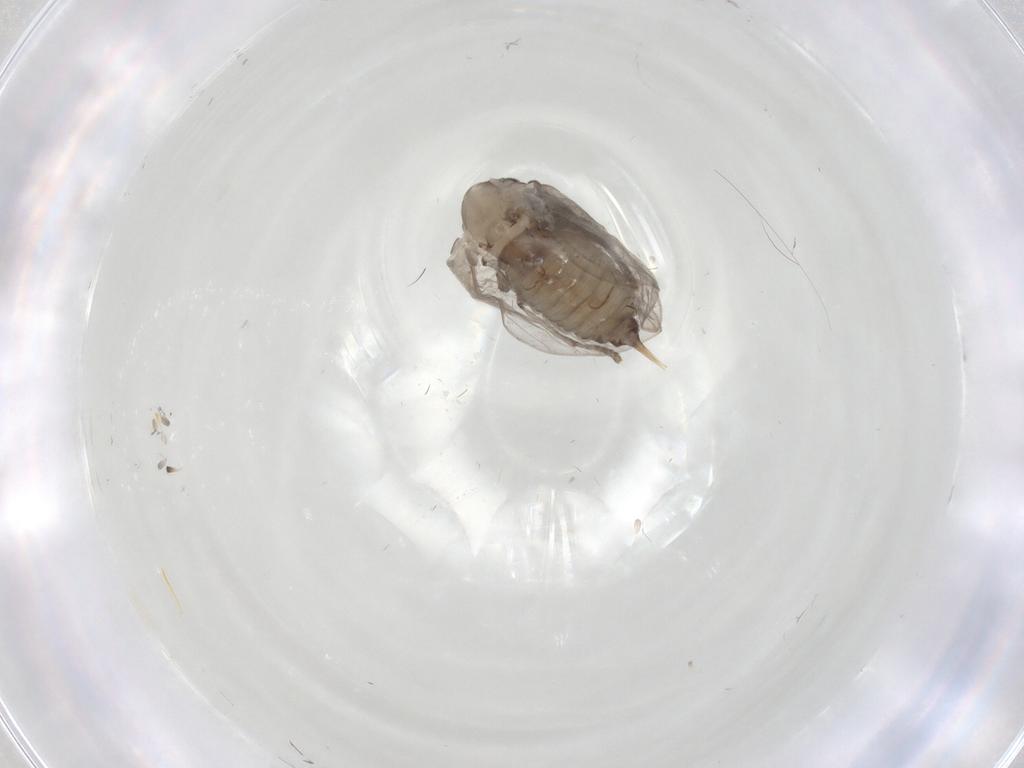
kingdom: Animalia
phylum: Arthropoda
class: Insecta
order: Diptera
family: Psychodidae
